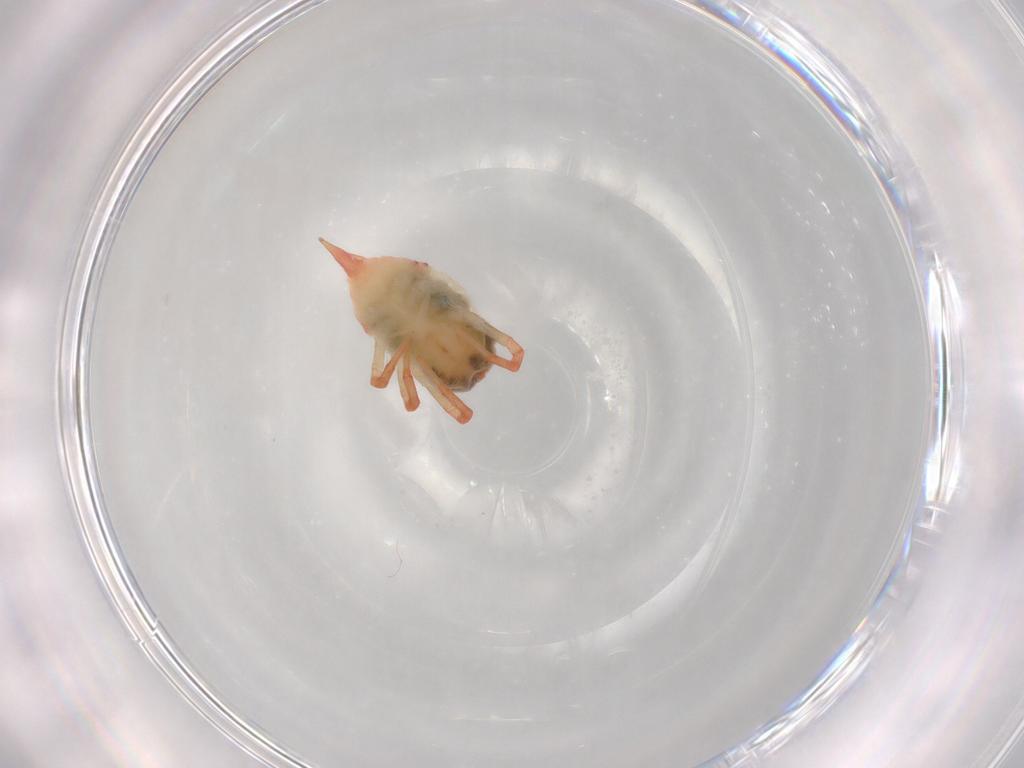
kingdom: Animalia
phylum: Arthropoda
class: Arachnida
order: Trombidiformes
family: Bdellidae
